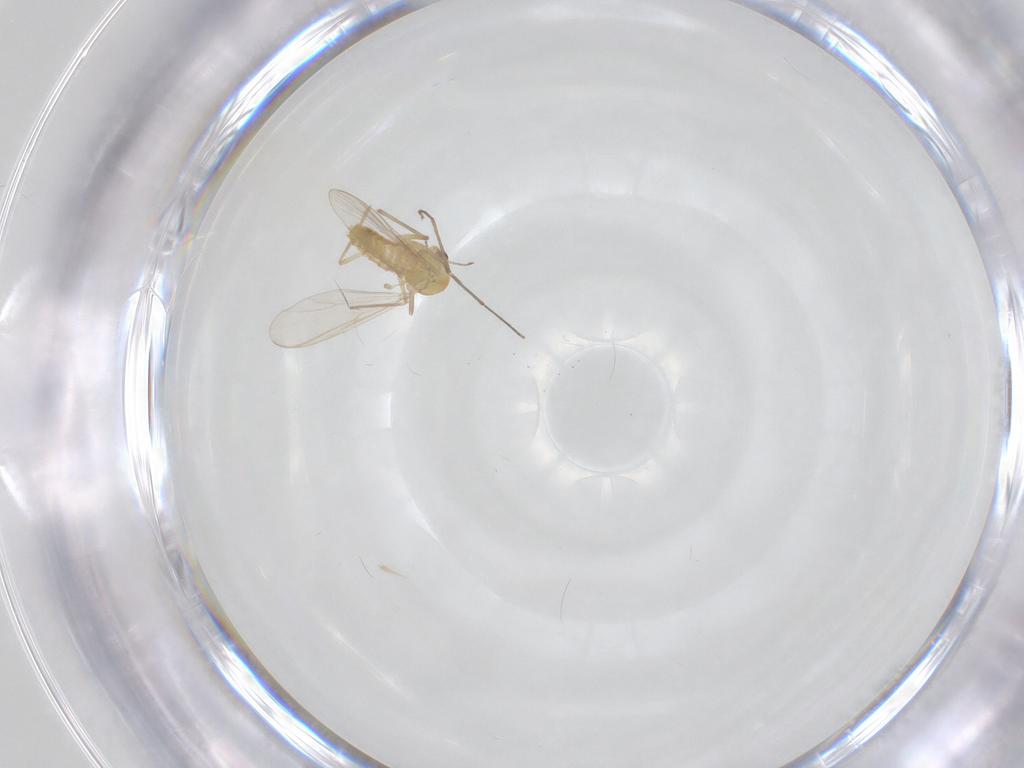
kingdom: Animalia
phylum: Arthropoda
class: Insecta
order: Diptera
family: Chironomidae
